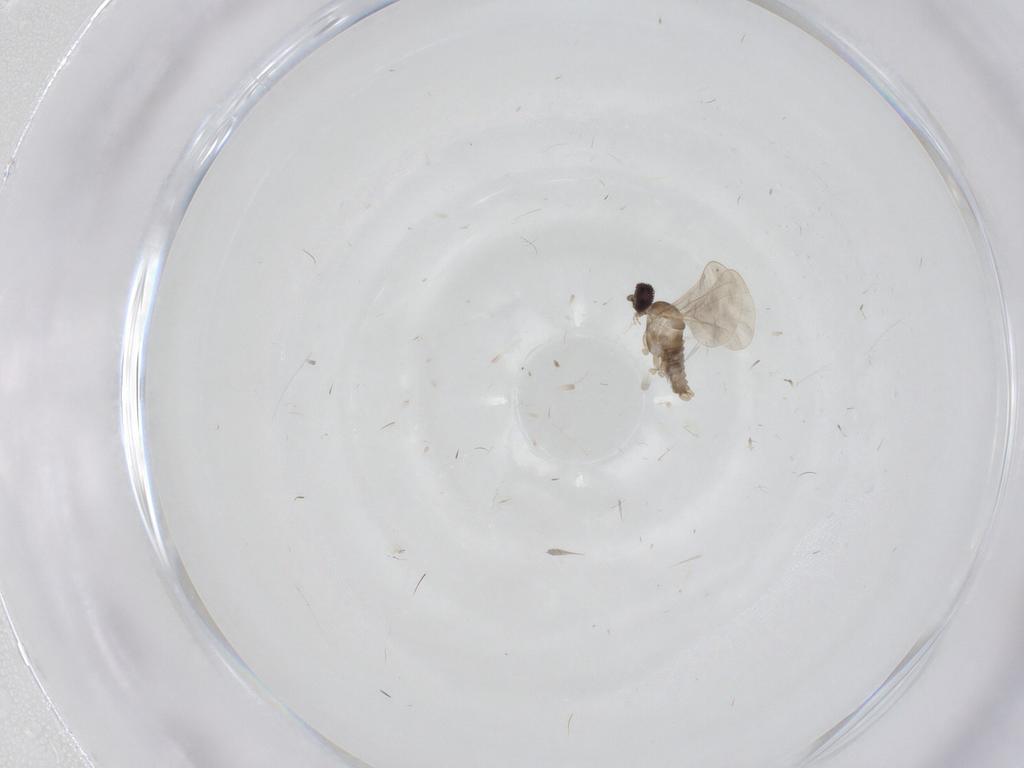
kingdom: Animalia
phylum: Arthropoda
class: Insecta
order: Diptera
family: Cecidomyiidae
